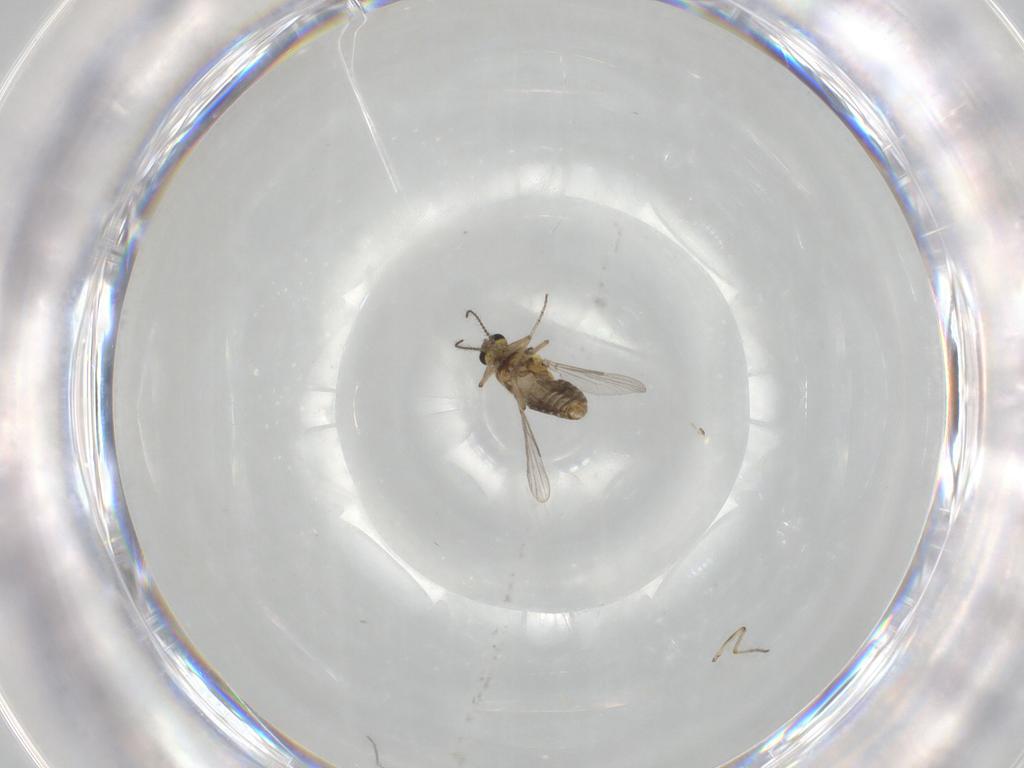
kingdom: Animalia
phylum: Arthropoda
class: Insecta
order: Diptera
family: Ceratopogonidae
